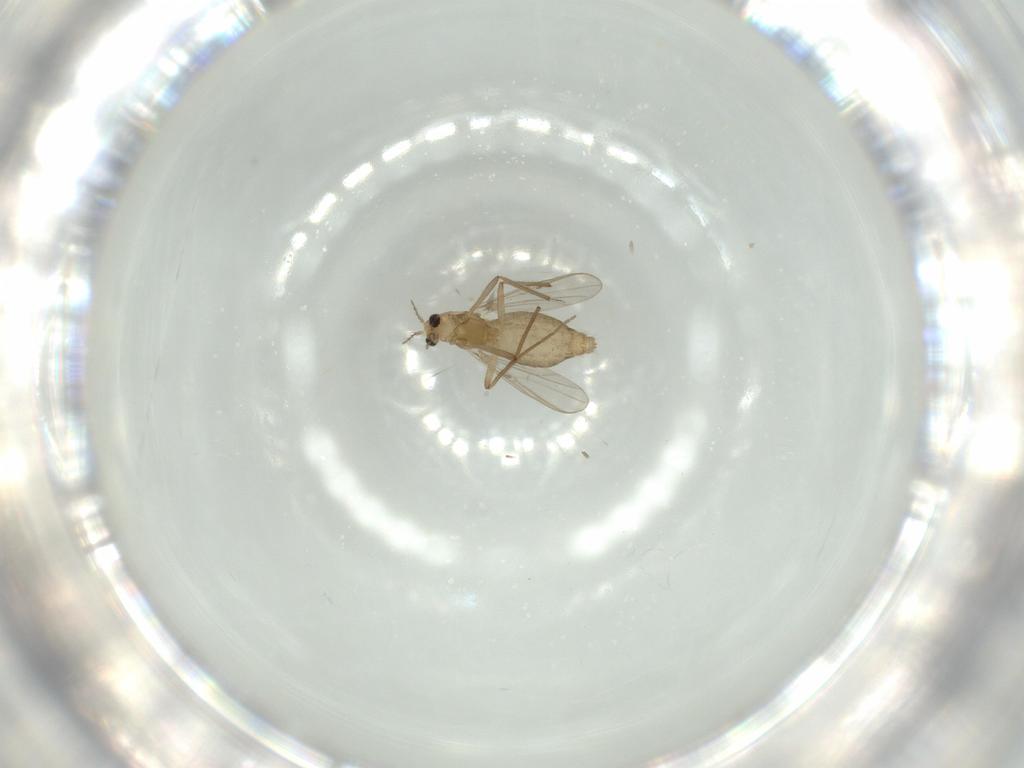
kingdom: Animalia
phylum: Arthropoda
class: Insecta
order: Diptera
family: Chironomidae
